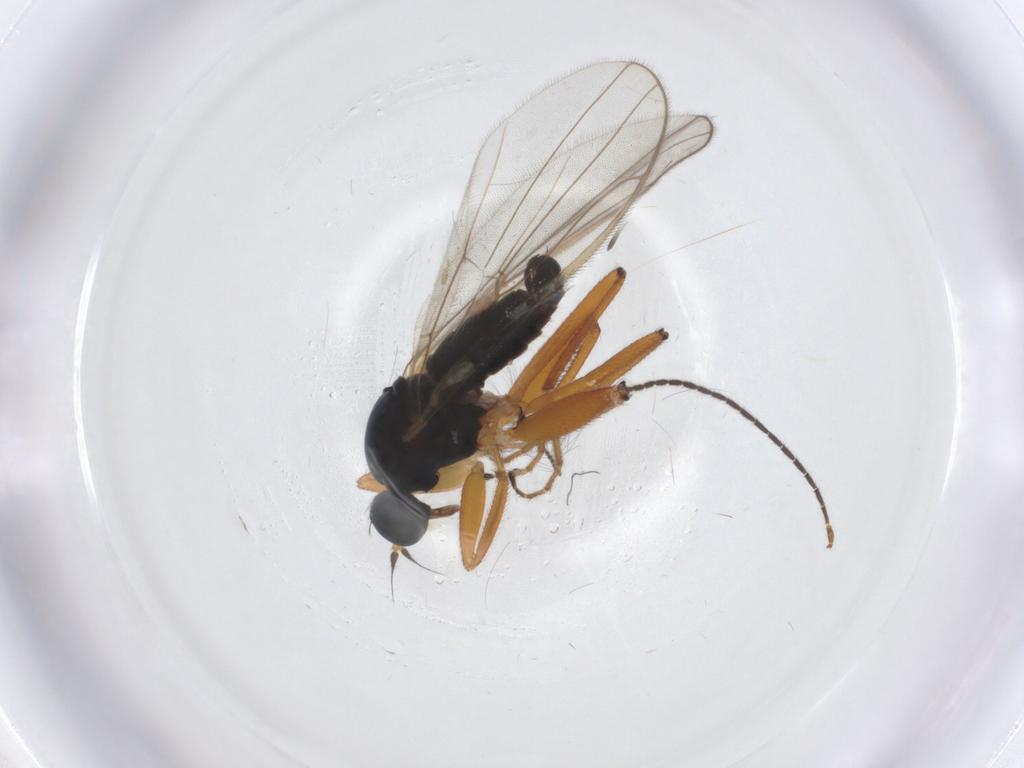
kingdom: Animalia
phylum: Arthropoda
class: Insecta
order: Diptera
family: Hybotidae
